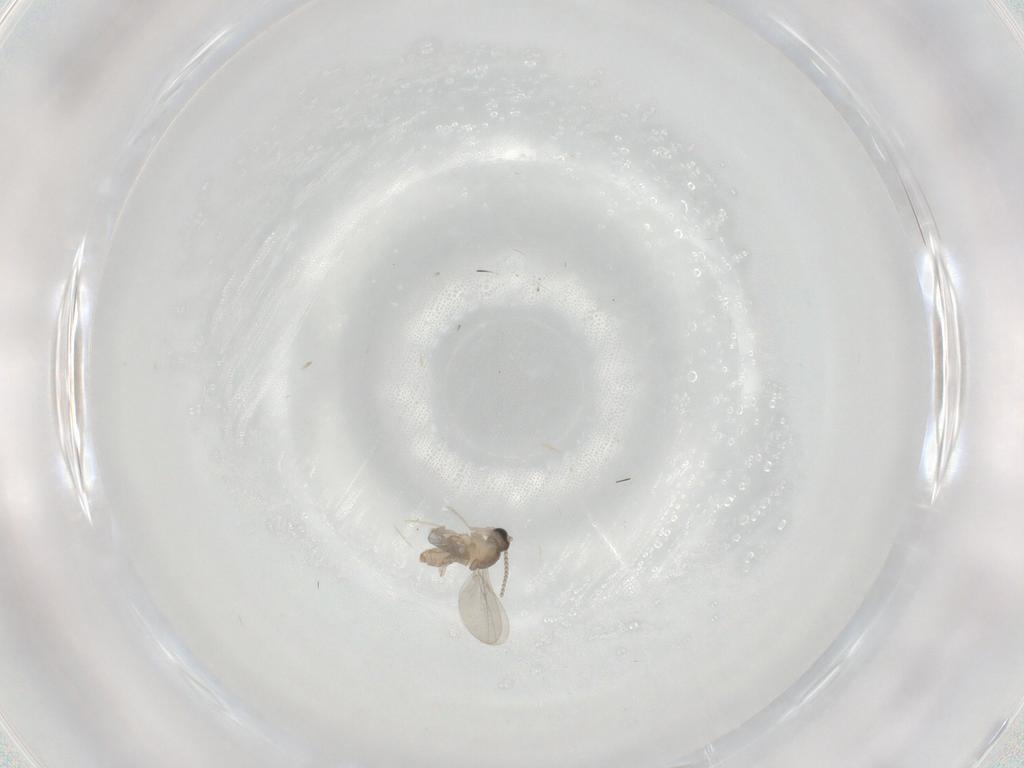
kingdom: Animalia
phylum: Arthropoda
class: Insecta
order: Diptera
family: Cecidomyiidae
